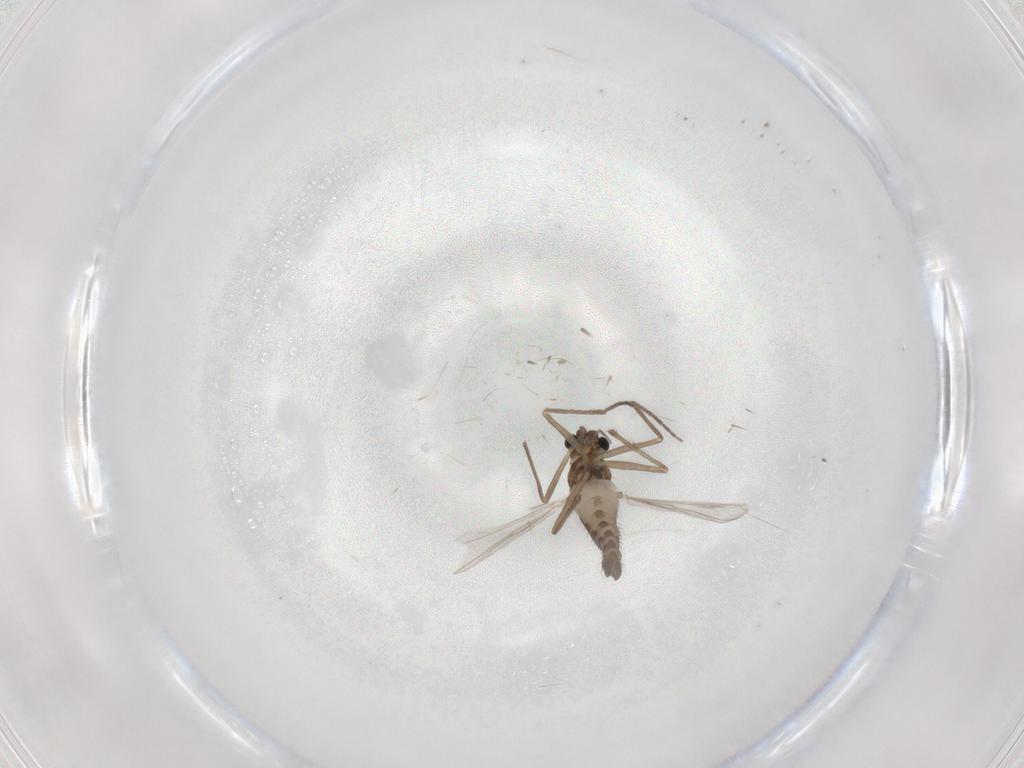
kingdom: Animalia
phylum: Arthropoda
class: Insecta
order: Diptera
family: Chironomidae
